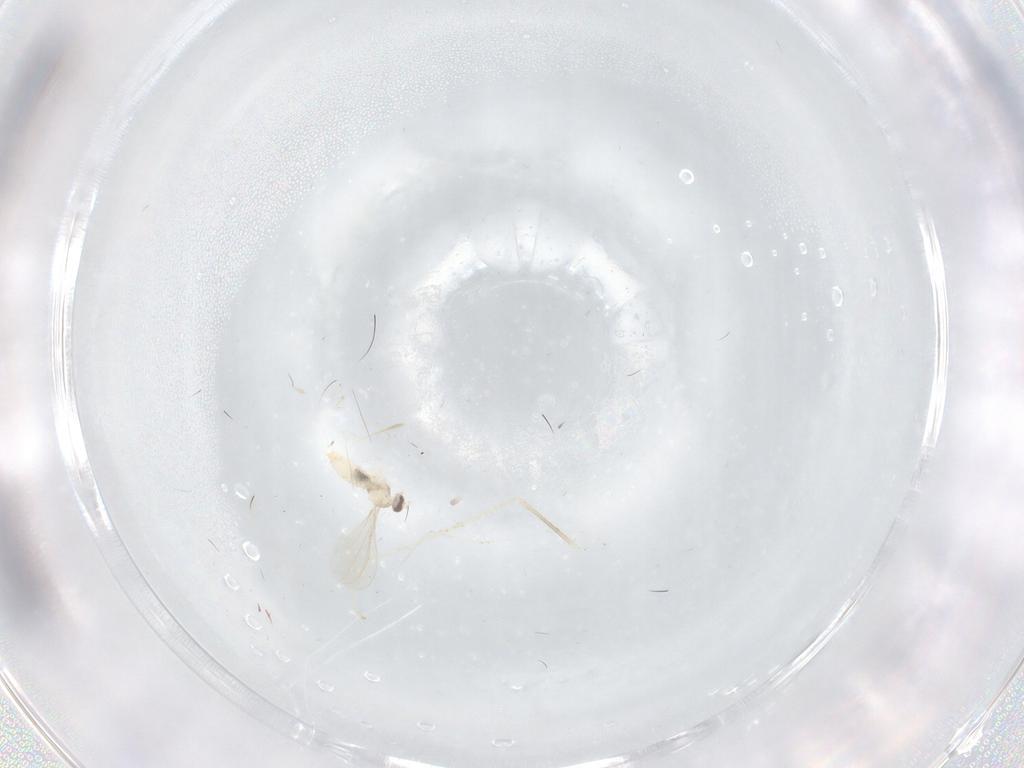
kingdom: Animalia
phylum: Arthropoda
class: Insecta
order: Diptera
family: Cecidomyiidae
